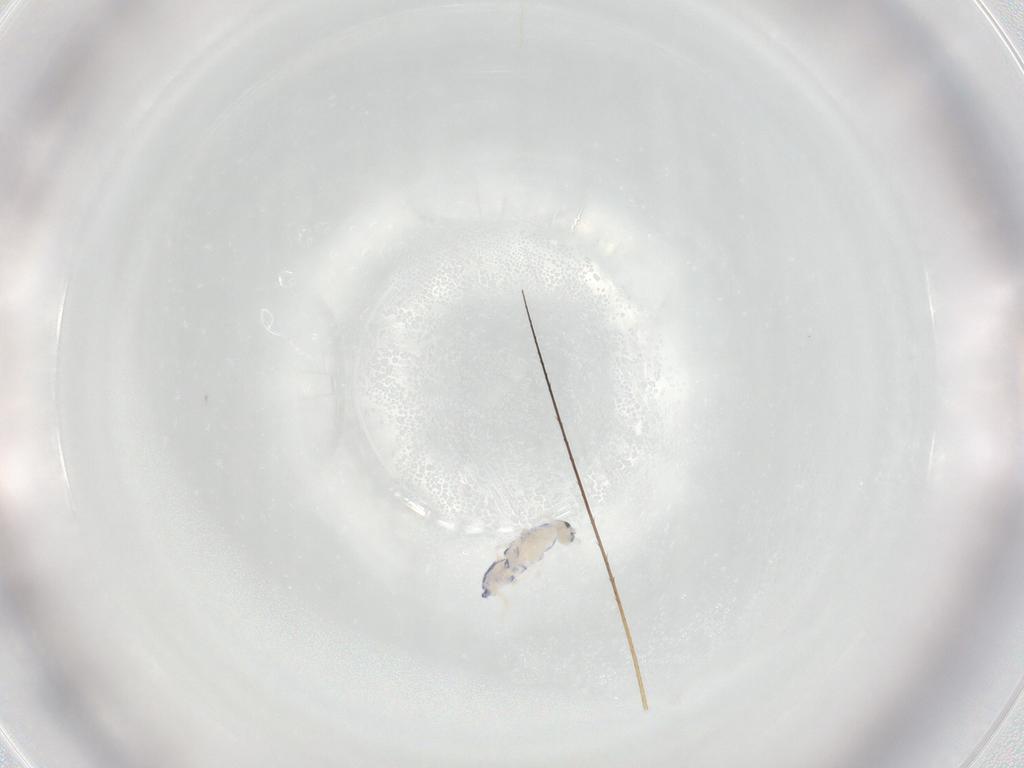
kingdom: Animalia
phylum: Arthropoda
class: Collembola
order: Entomobryomorpha
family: Entomobryidae
